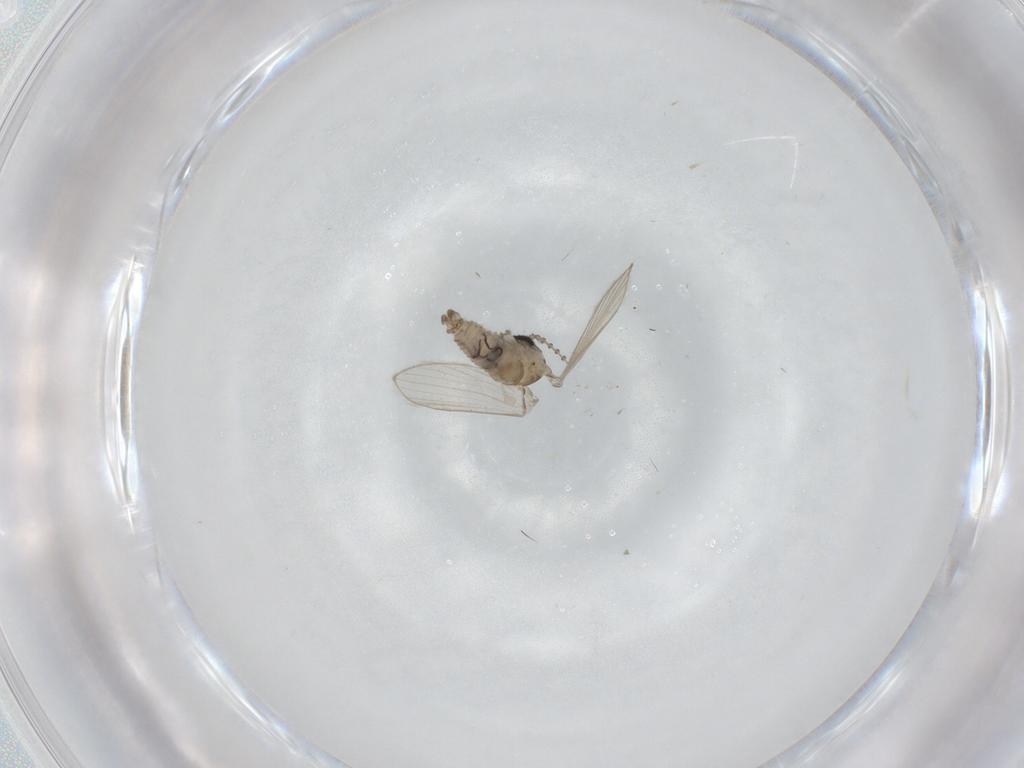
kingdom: Animalia
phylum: Arthropoda
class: Insecta
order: Diptera
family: Psychodidae
